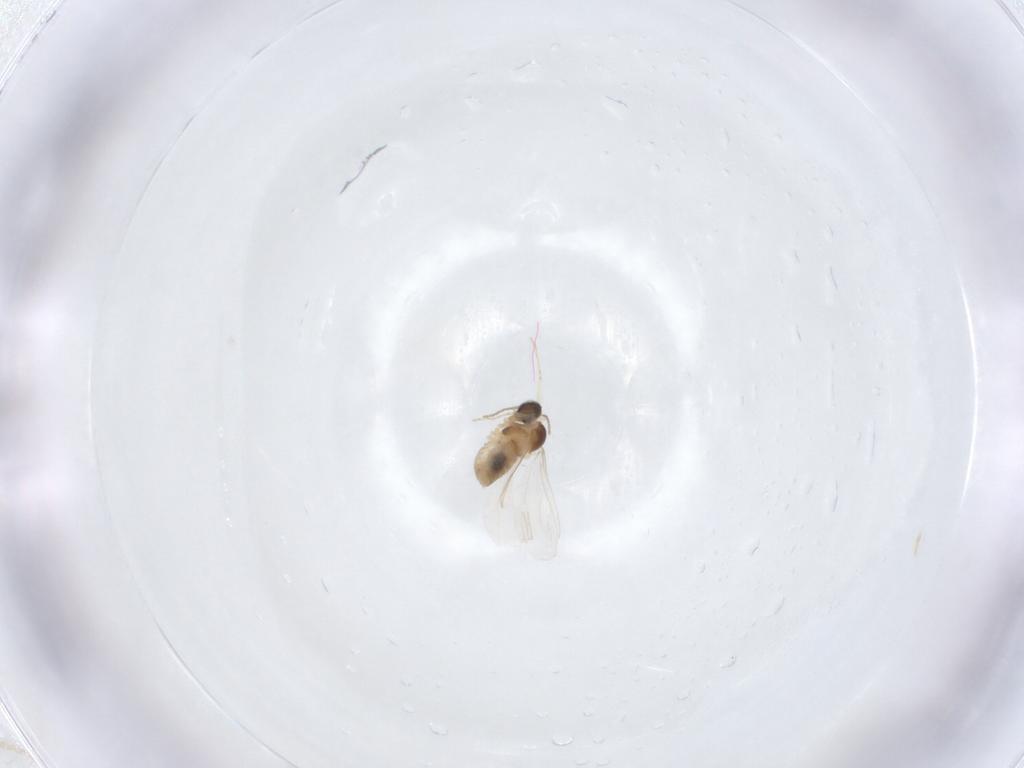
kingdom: Animalia
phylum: Arthropoda
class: Insecta
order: Diptera
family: Cecidomyiidae
